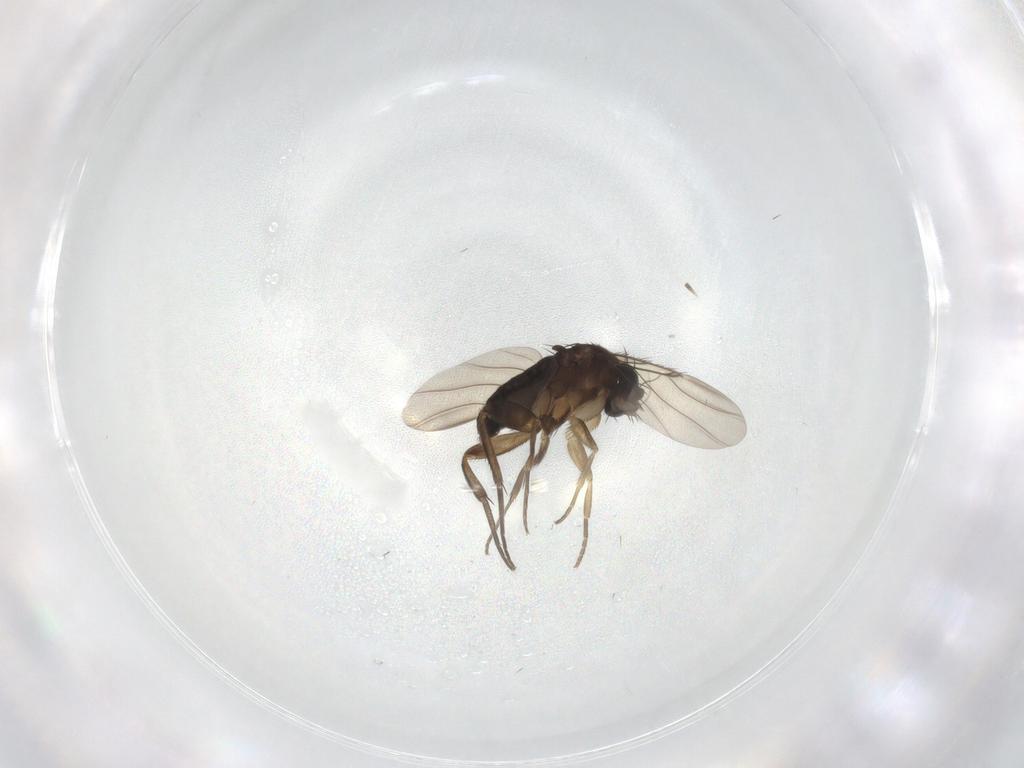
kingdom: Animalia
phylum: Arthropoda
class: Insecta
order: Diptera
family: Phoridae
